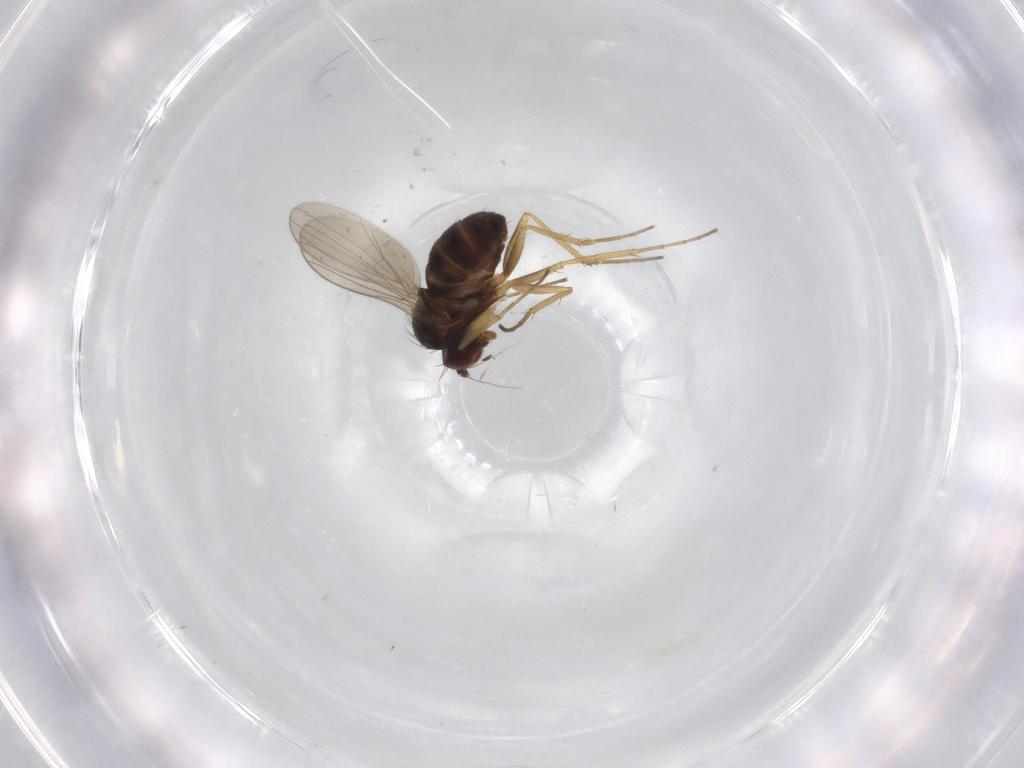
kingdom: Animalia
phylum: Arthropoda
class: Insecta
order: Diptera
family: Dolichopodidae
